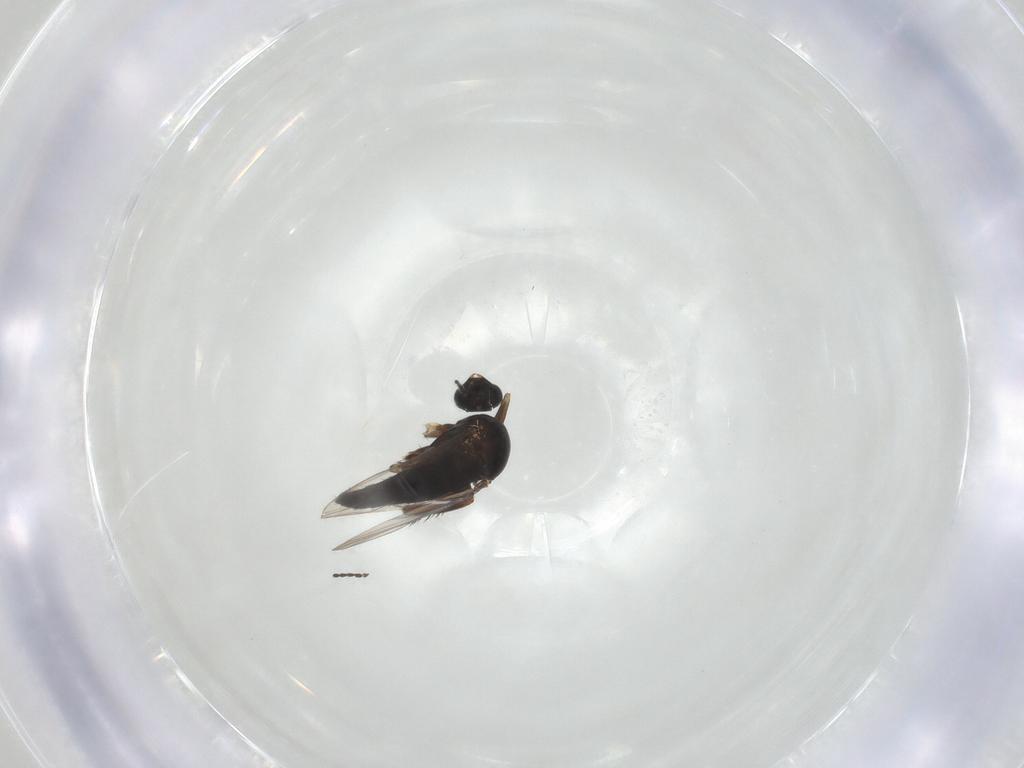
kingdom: Animalia
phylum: Arthropoda
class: Insecta
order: Diptera
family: Phoridae
